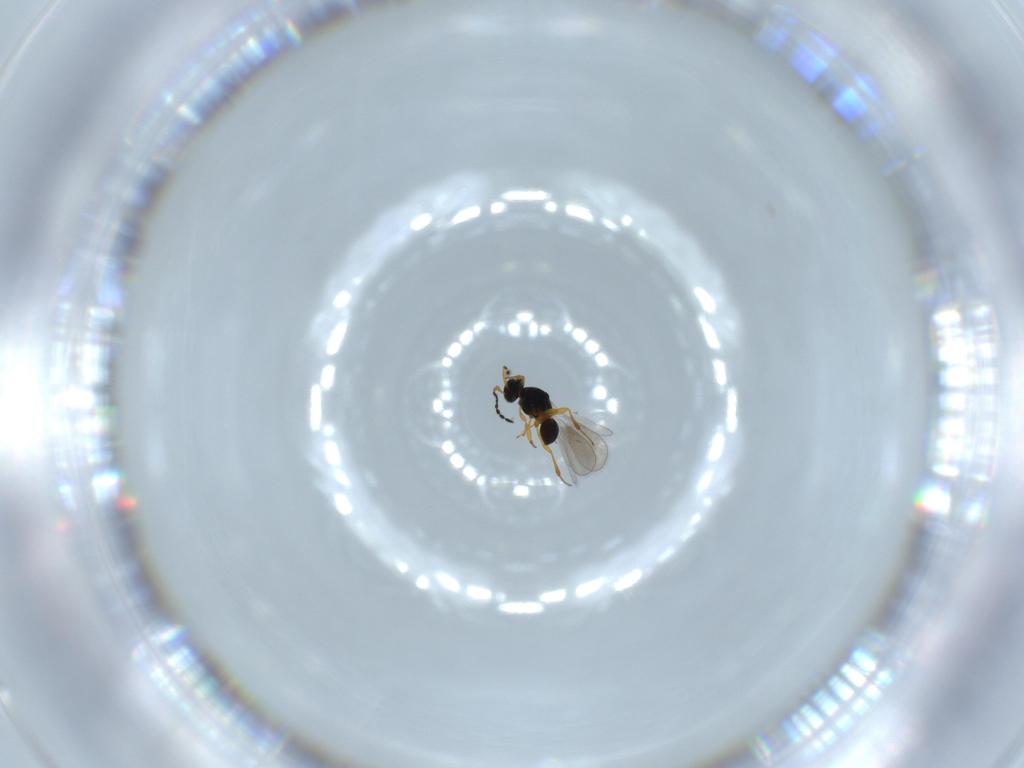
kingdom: Animalia
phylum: Arthropoda
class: Insecta
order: Hymenoptera
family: Platygastridae
